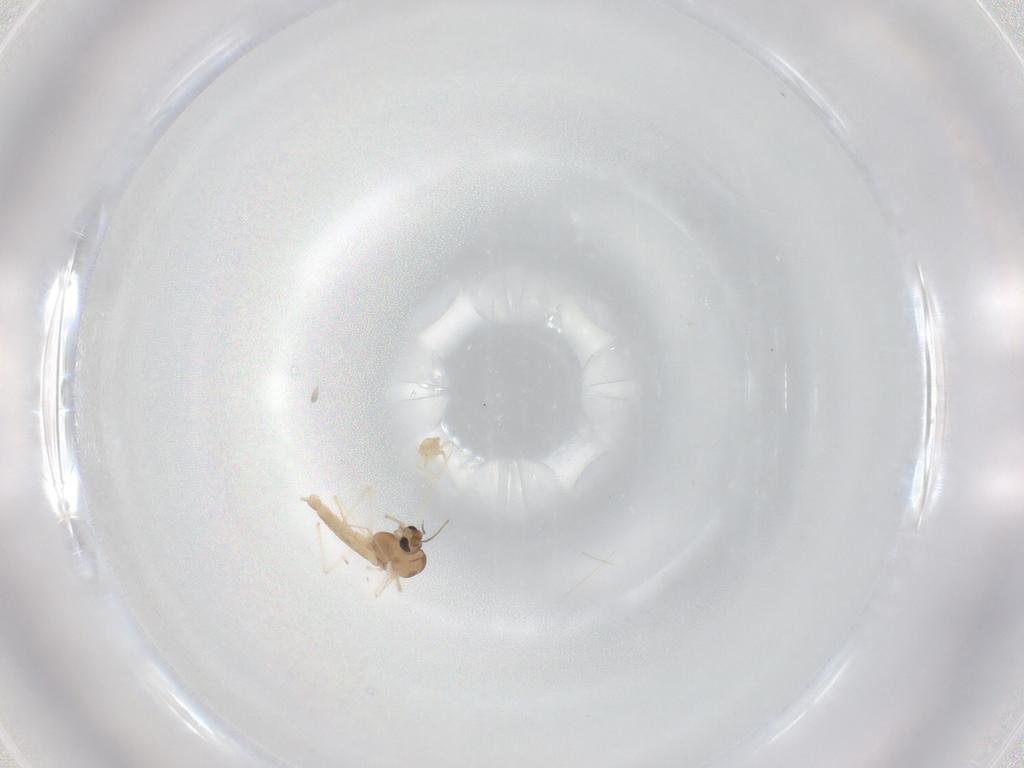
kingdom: Animalia
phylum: Arthropoda
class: Insecta
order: Diptera
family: Chironomidae
